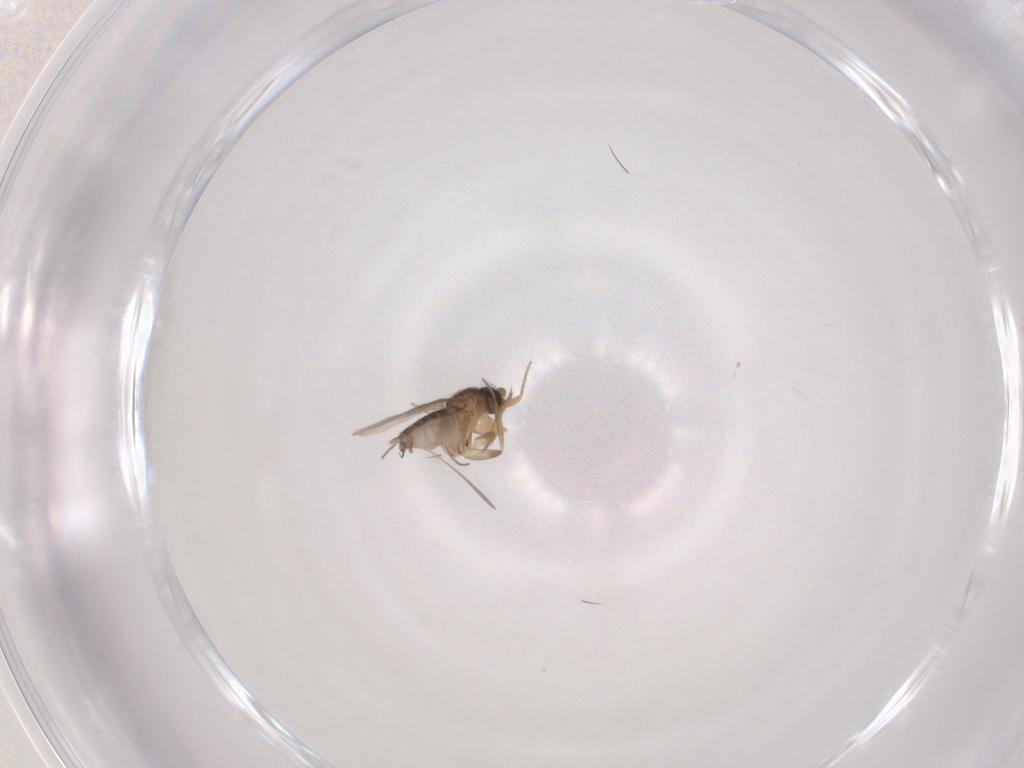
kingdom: Animalia
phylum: Arthropoda
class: Insecta
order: Diptera
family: Phoridae
